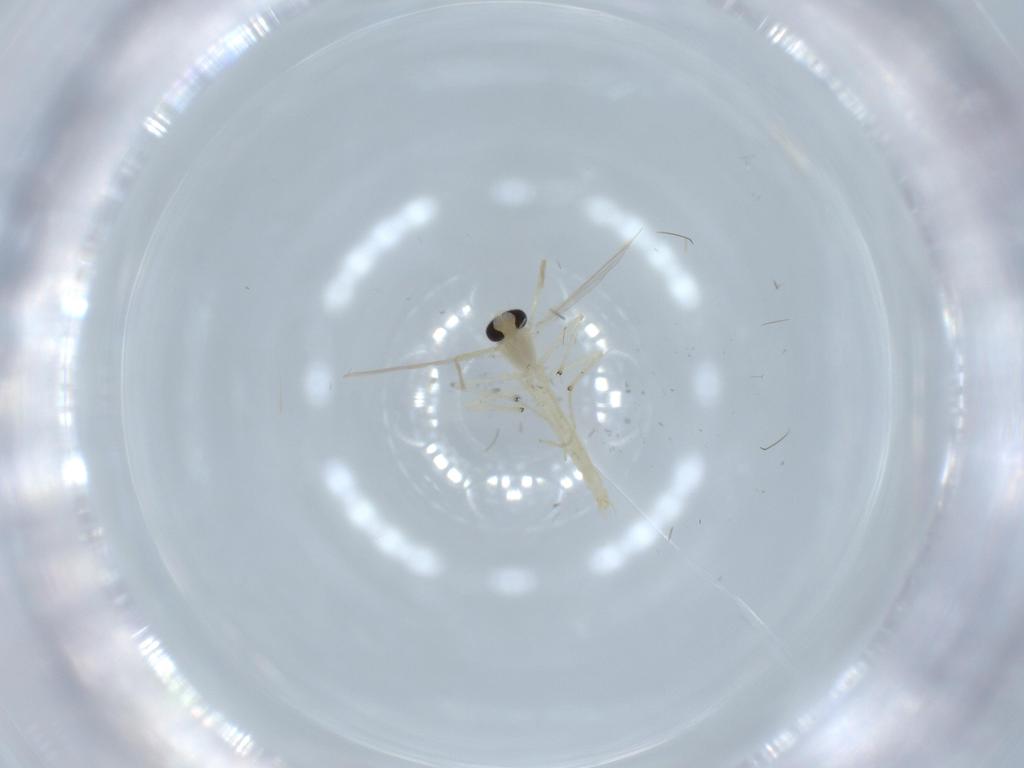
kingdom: Animalia
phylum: Arthropoda
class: Insecta
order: Diptera
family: Chironomidae
